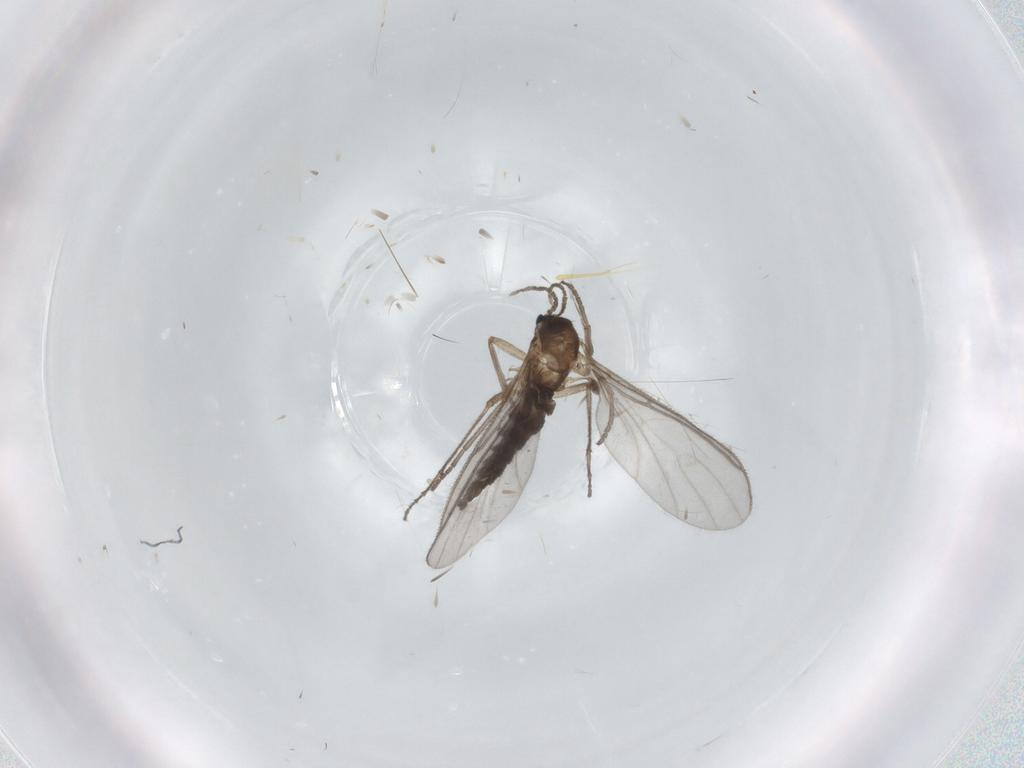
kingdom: Animalia
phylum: Arthropoda
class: Insecta
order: Diptera
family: Sciaridae
